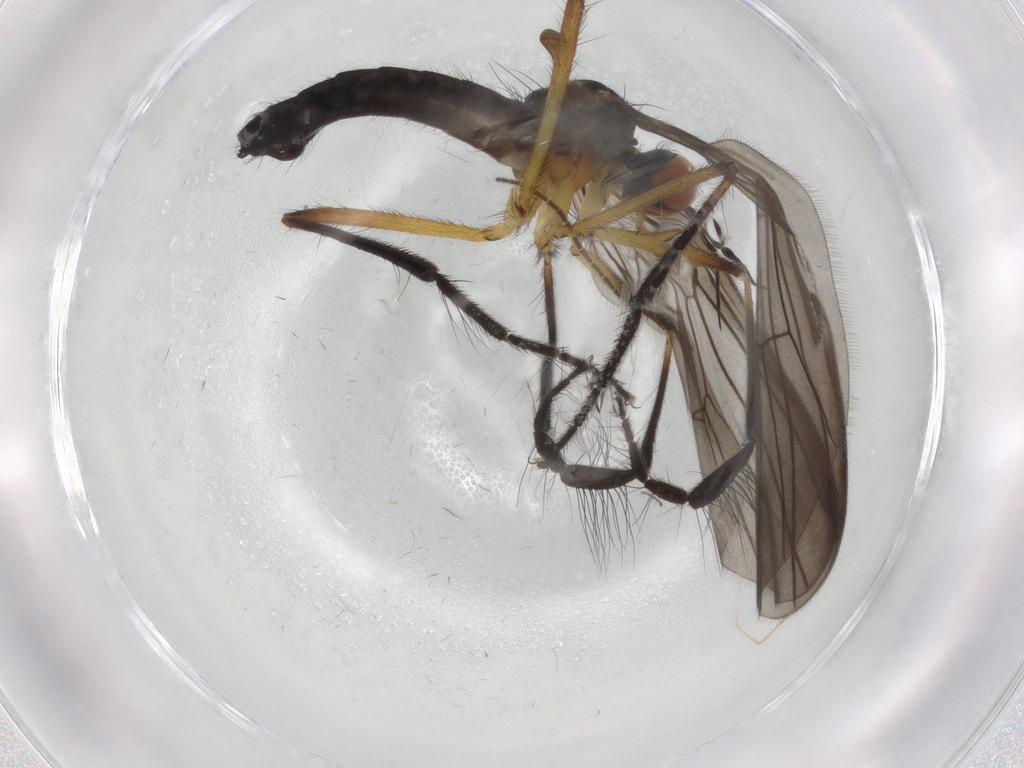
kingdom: Animalia
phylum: Arthropoda
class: Insecta
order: Diptera
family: Empididae
